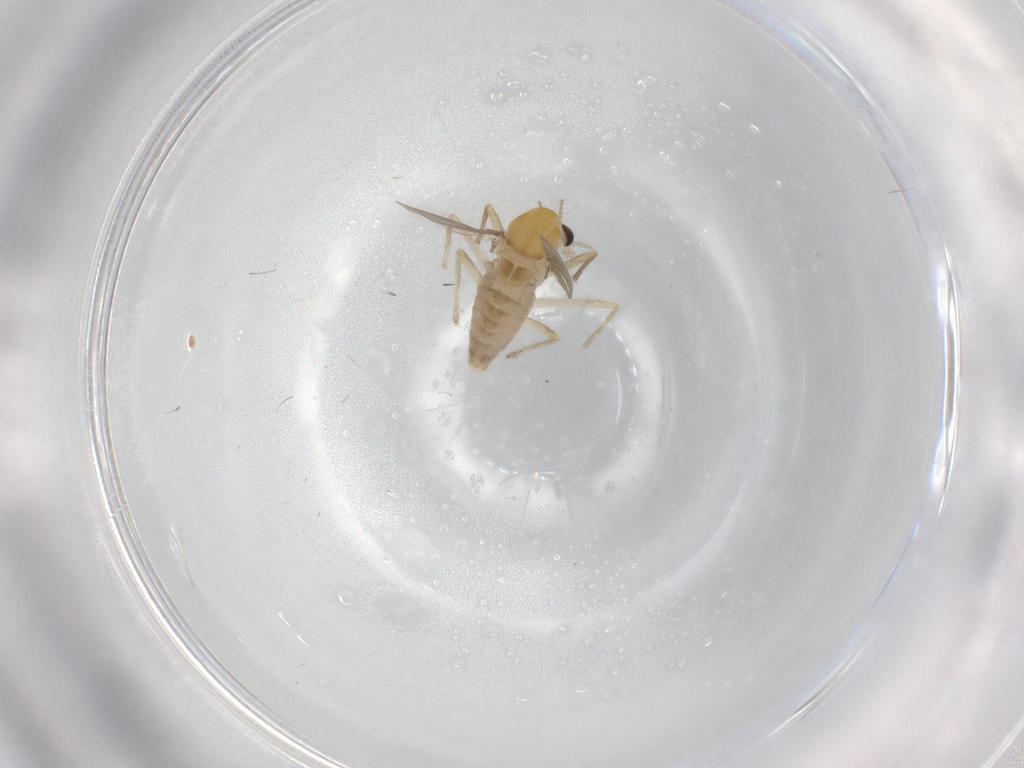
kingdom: Animalia
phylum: Arthropoda
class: Insecta
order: Diptera
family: Chironomidae
